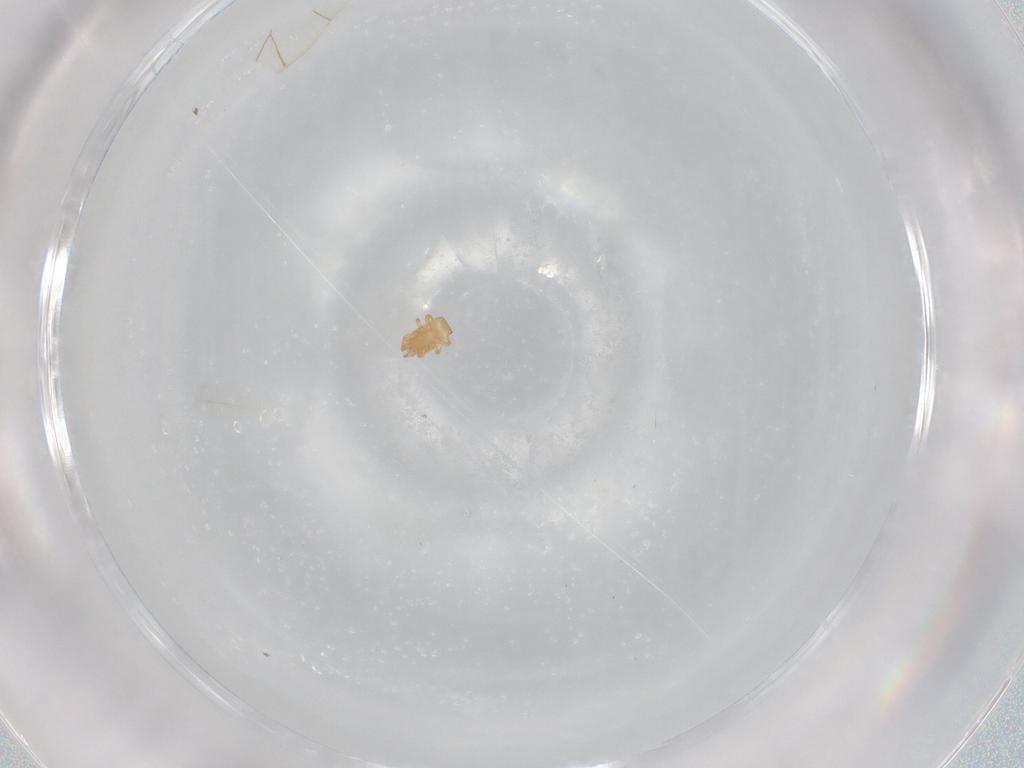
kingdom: Animalia
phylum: Arthropoda
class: Arachnida
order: Mesostigmata
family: Digamasellidae
